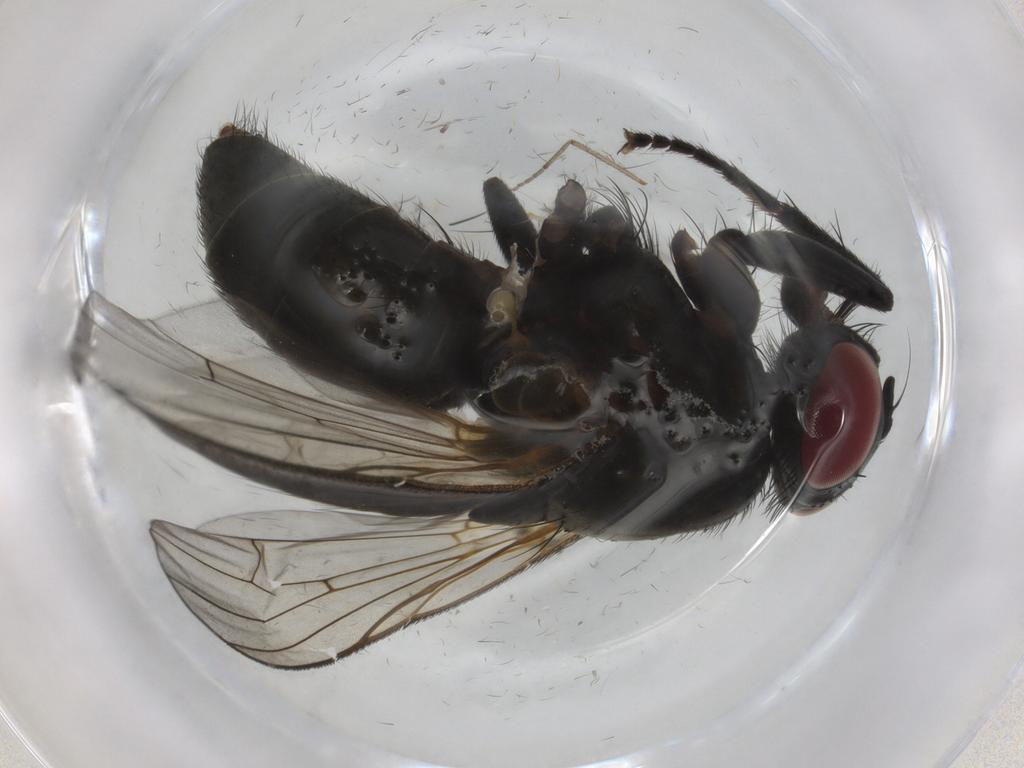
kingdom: Animalia
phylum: Arthropoda
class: Insecta
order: Diptera
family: Muscidae
